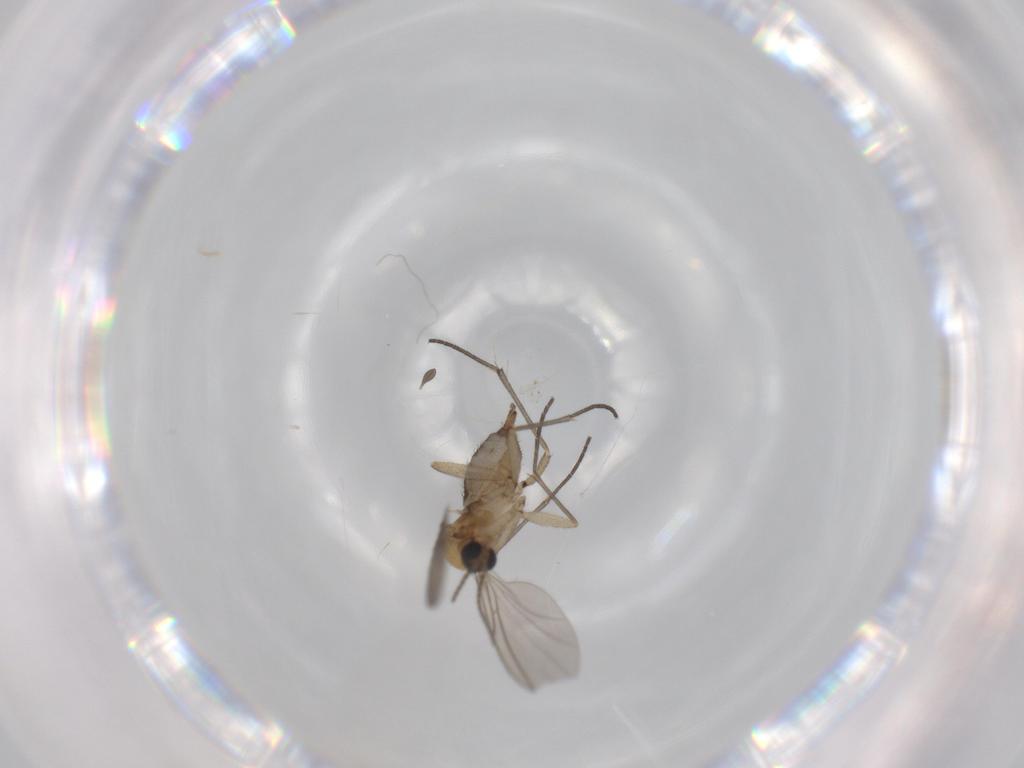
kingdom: Animalia
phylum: Arthropoda
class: Insecta
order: Diptera
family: Sciaridae
